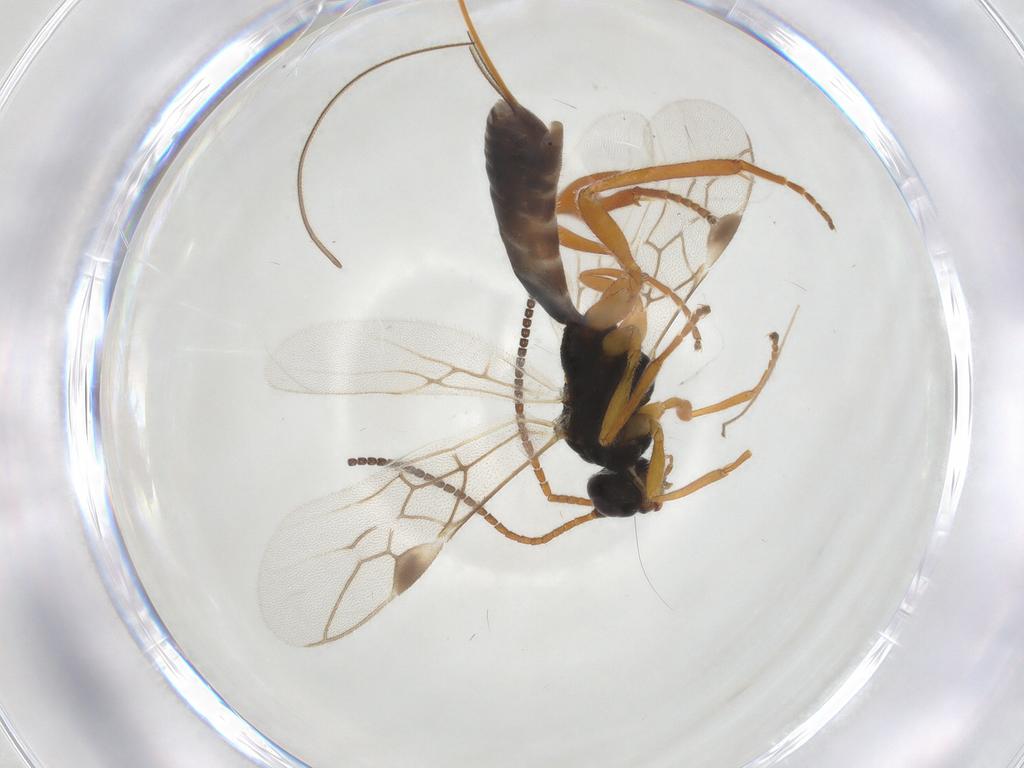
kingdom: Animalia
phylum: Arthropoda
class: Insecta
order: Hymenoptera
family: Braconidae
